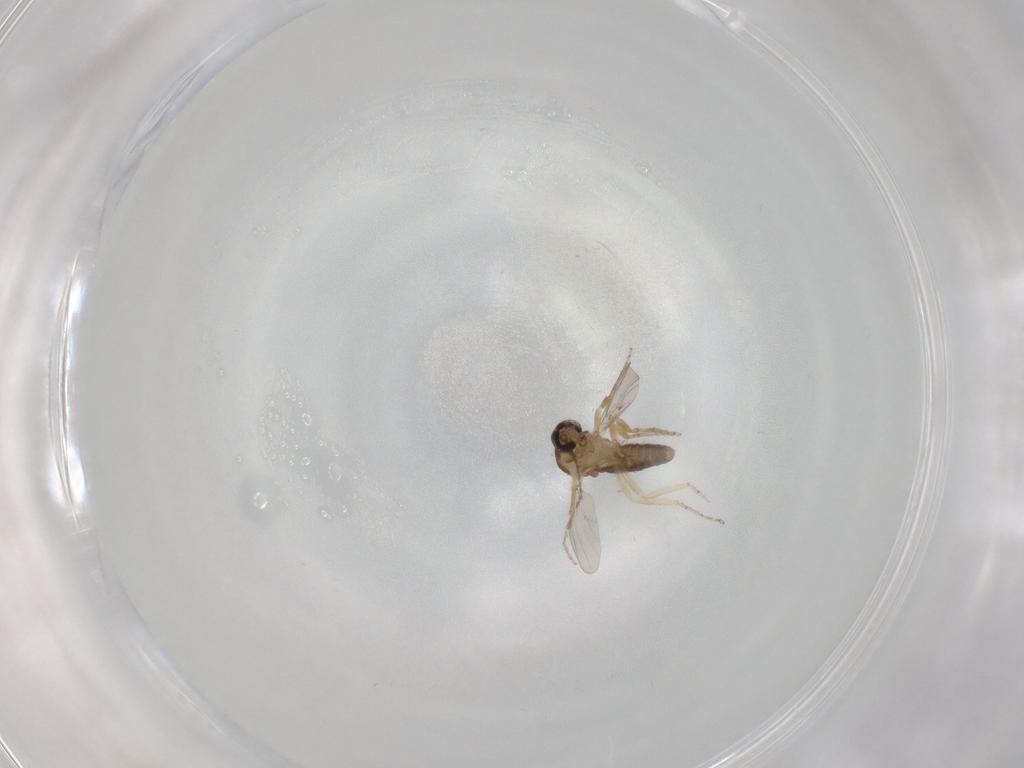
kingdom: Animalia
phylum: Arthropoda
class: Insecta
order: Diptera
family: Ceratopogonidae
